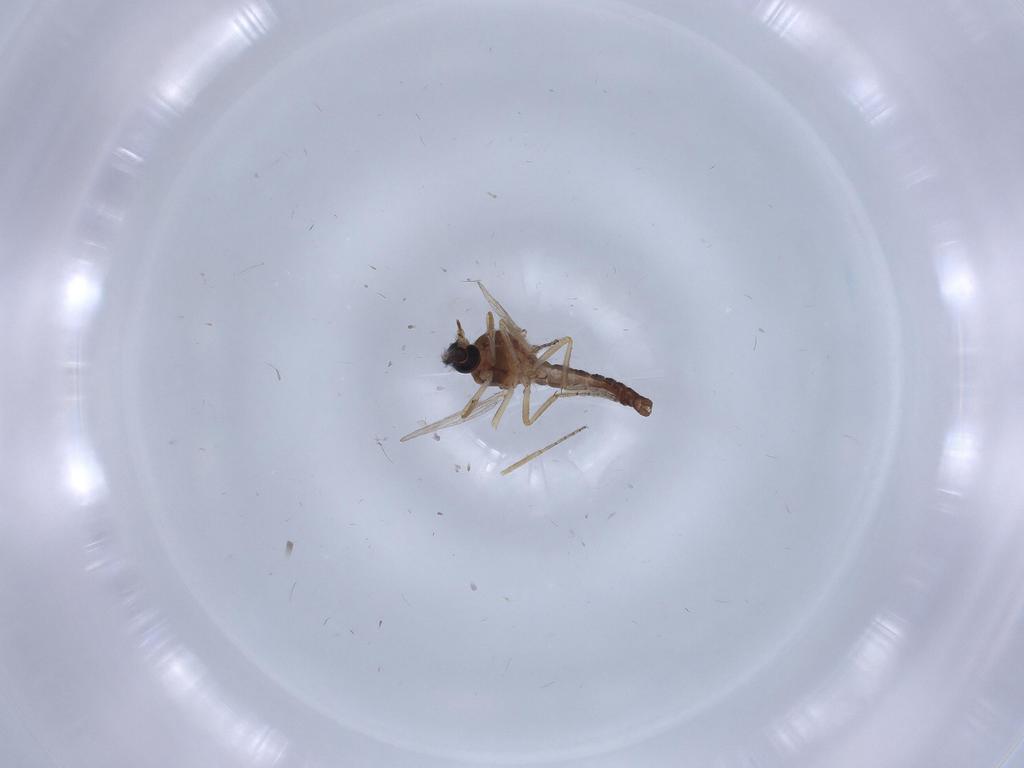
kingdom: Animalia
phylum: Arthropoda
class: Insecta
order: Diptera
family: Ceratopogonidae
